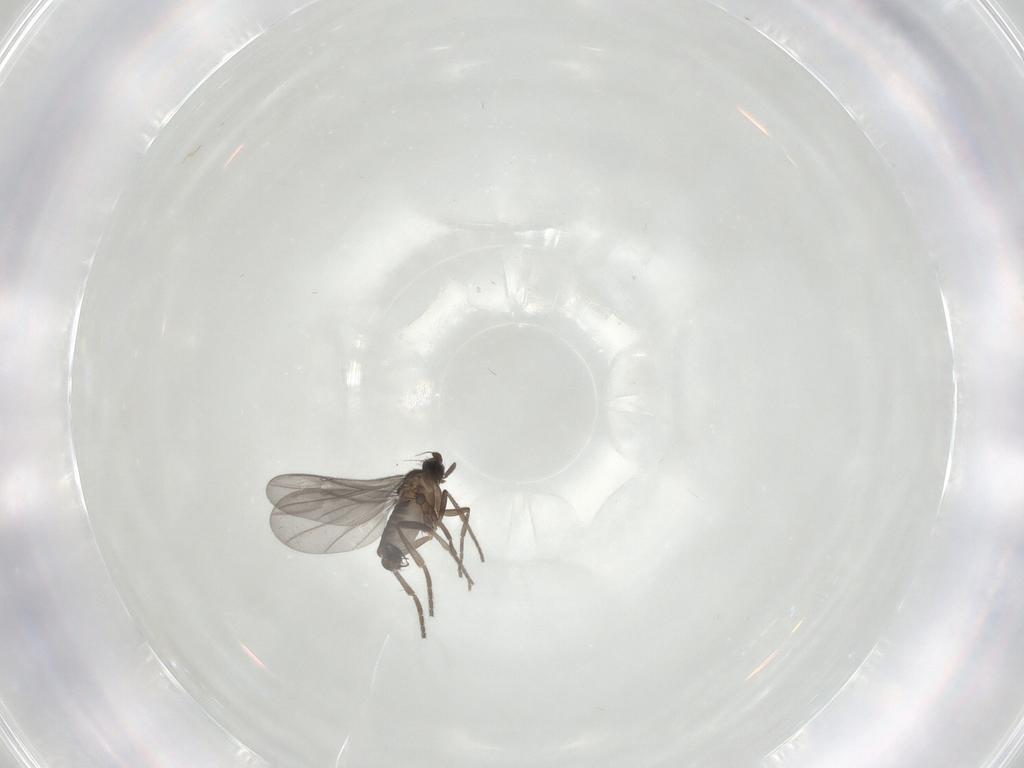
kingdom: Animalia
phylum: Arthropoda
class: Insecta
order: Diptera
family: Phoridae
